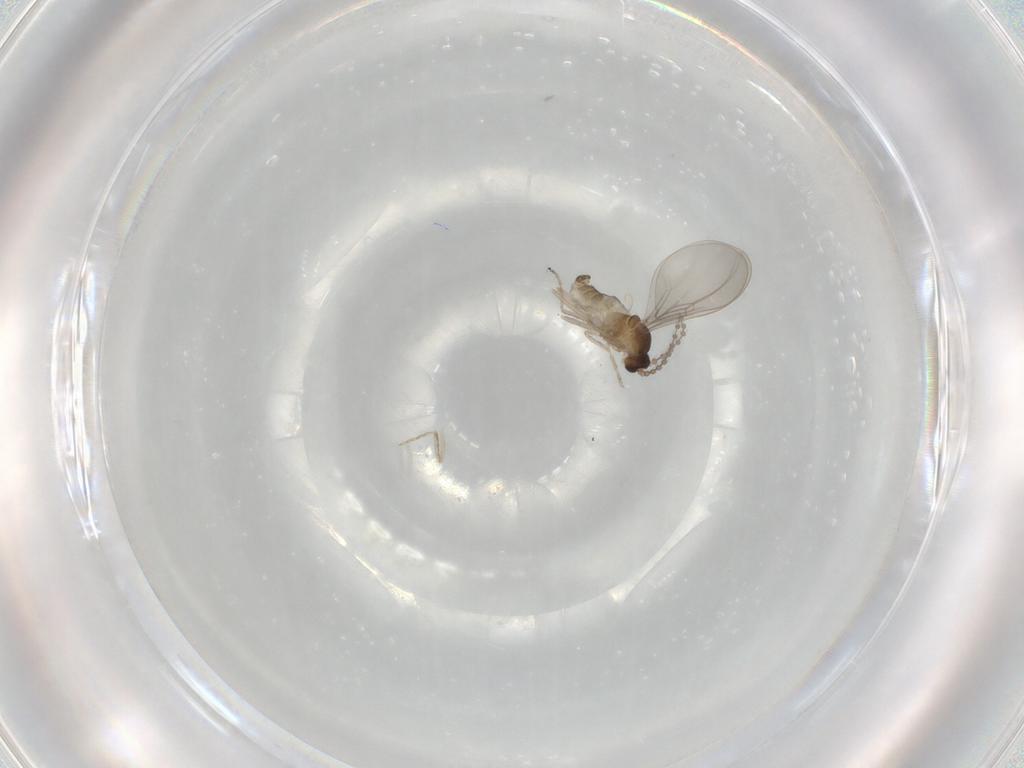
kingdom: Animalia
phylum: Arthropoda
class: Insecta
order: Diptera
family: Cecidomyiidae
